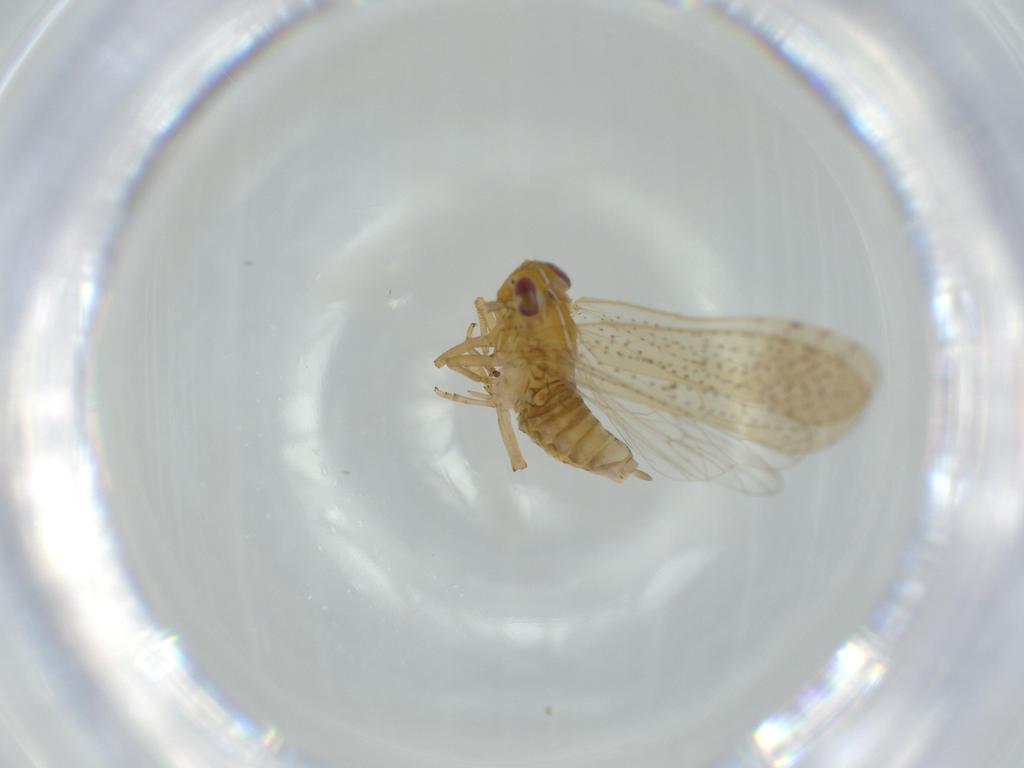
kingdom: Animalia
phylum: Arthropoda
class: Insecta
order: Hemiptera
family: Delphacidae
